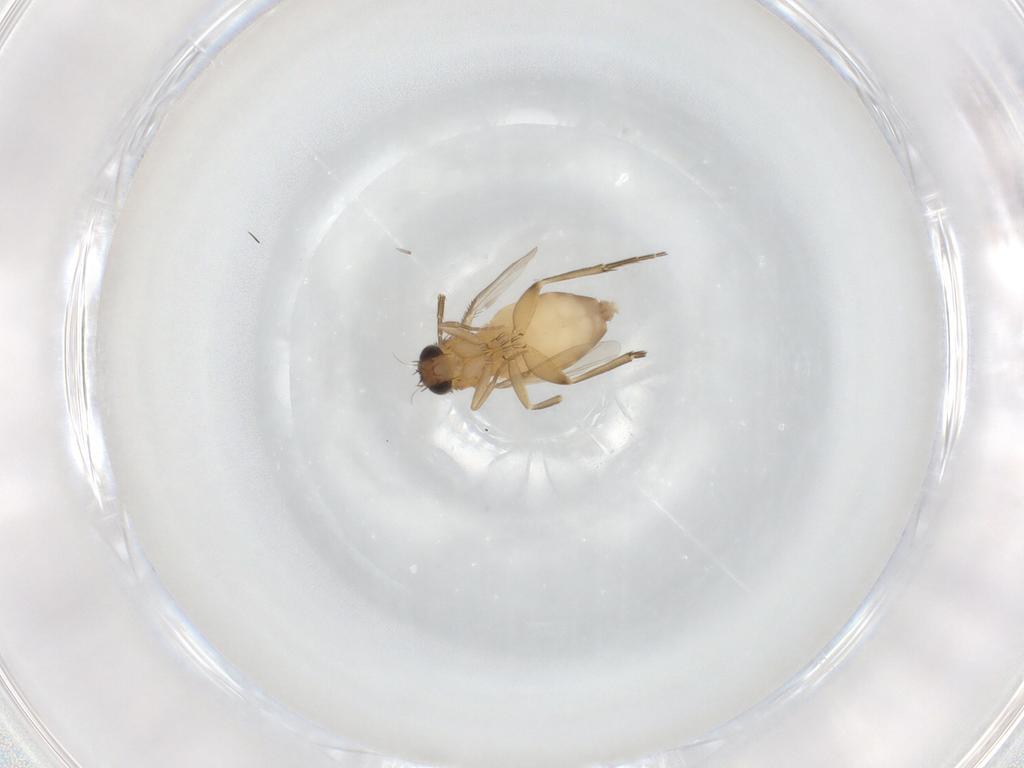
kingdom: Animalia
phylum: Arthropoda
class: Insecta
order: Diptera
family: Phoridae
